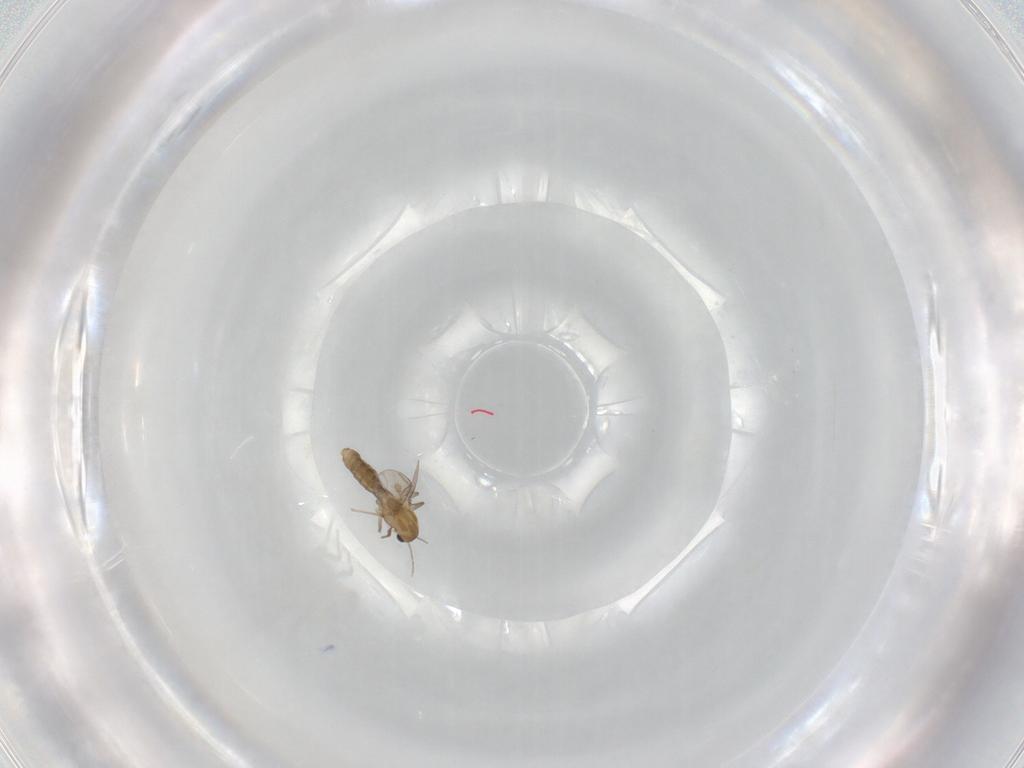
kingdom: Animalia
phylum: Arthropoda
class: Insecta
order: Diptera
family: Chironomidae
